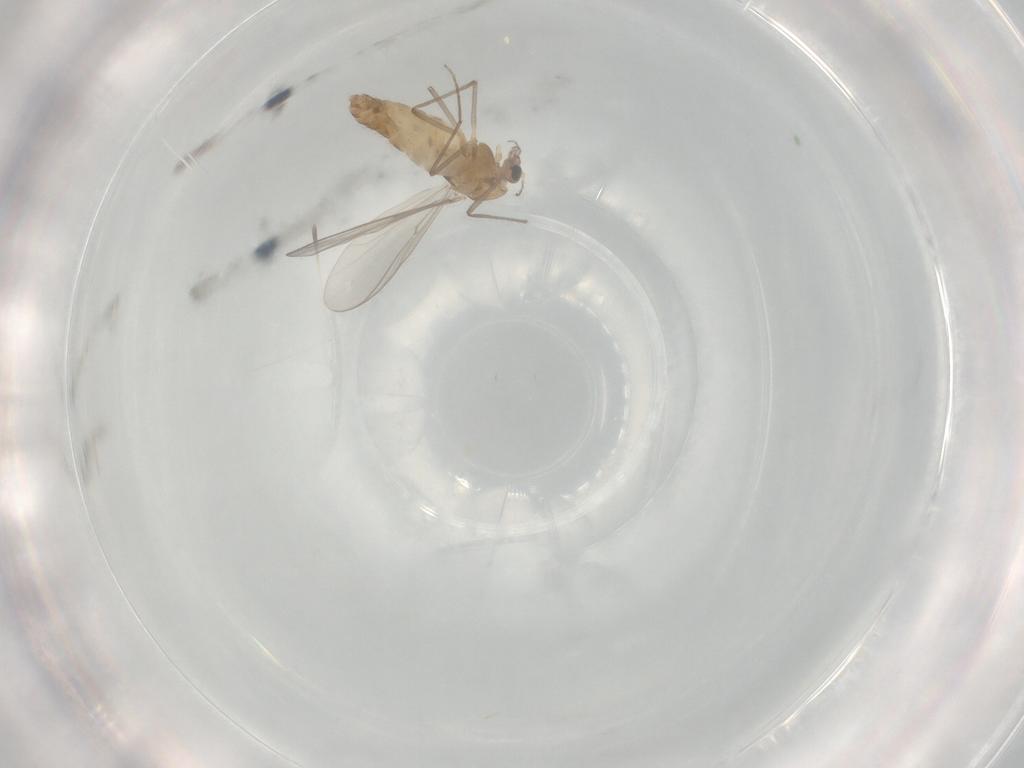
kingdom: Animalia
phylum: Arthropoda
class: Insecta
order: Diptera
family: Chironomidae
